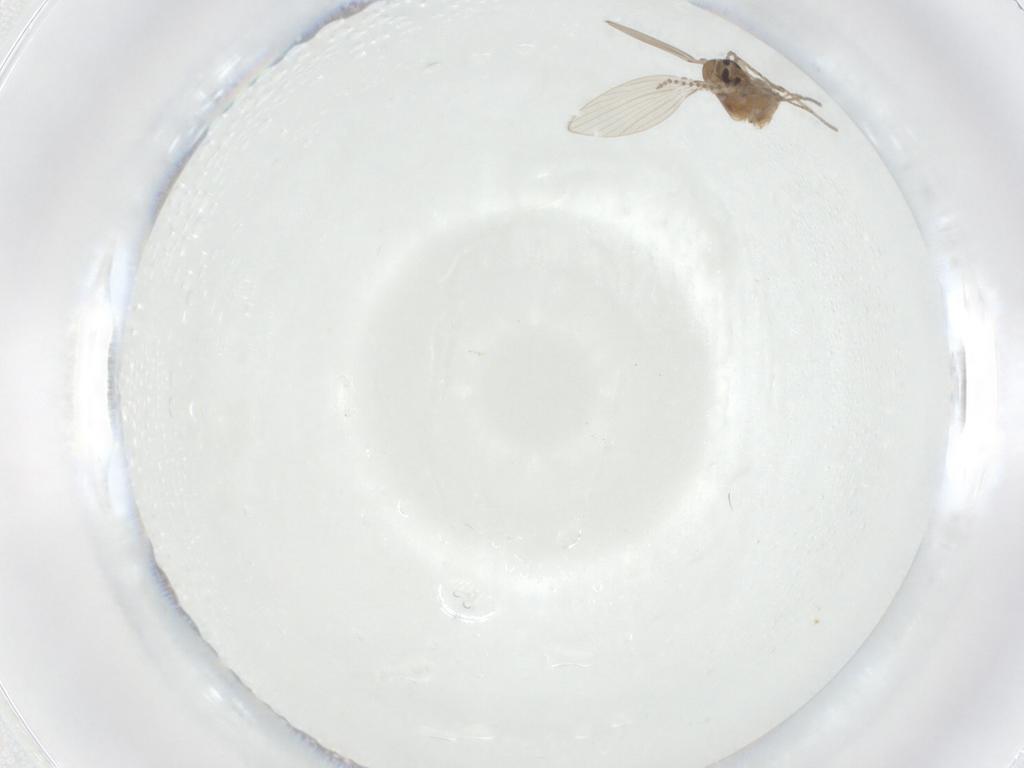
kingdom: Animalia
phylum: Arthropoda
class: Insecta
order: Diptera
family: Psychodidae
